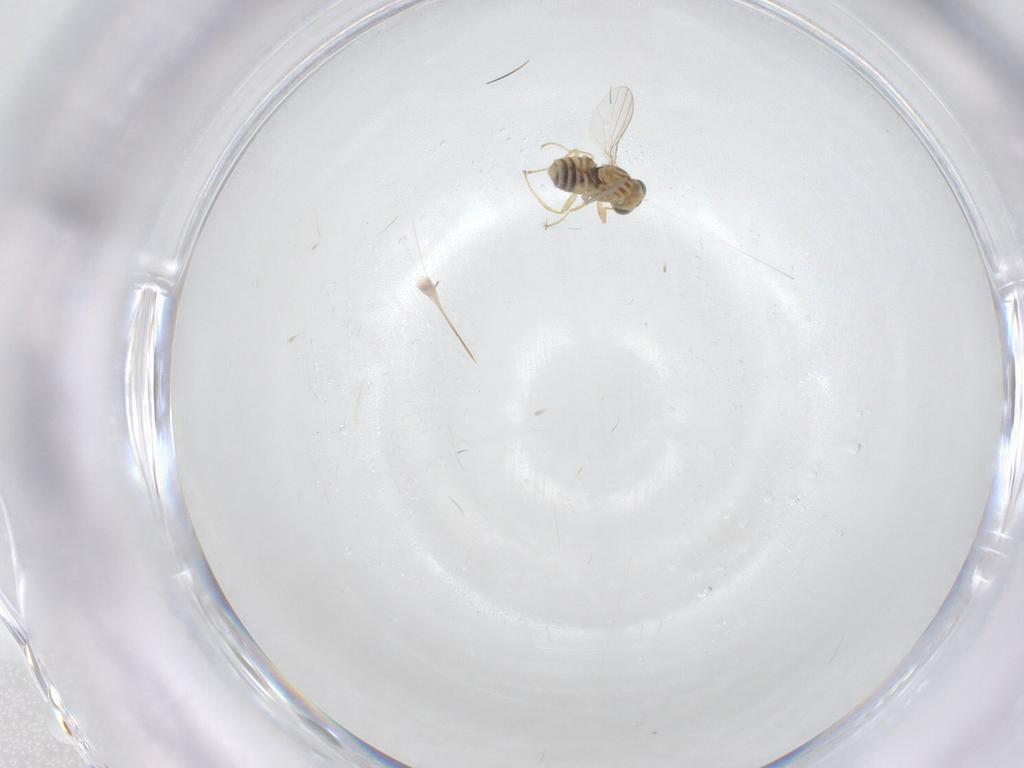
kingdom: Animalia
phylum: Arthropoda
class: Insecta
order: Diptera
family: Chyromyidae
